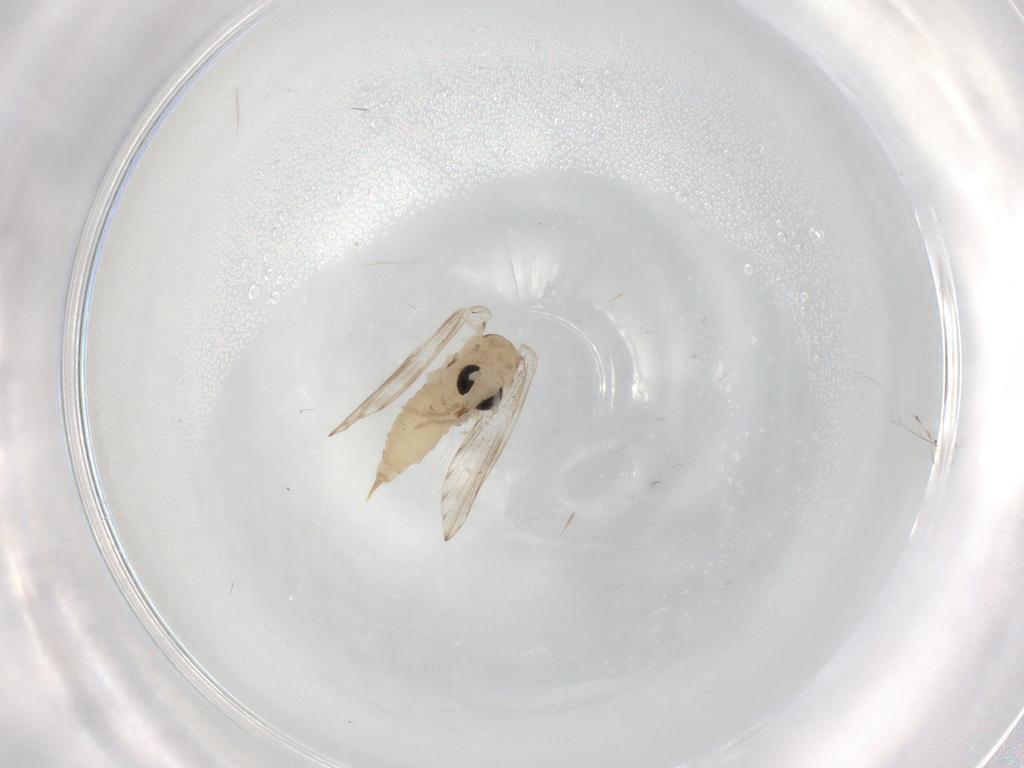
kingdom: Animalia
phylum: Arthropoda
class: Insecta
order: Diptera
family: Psychodidae
